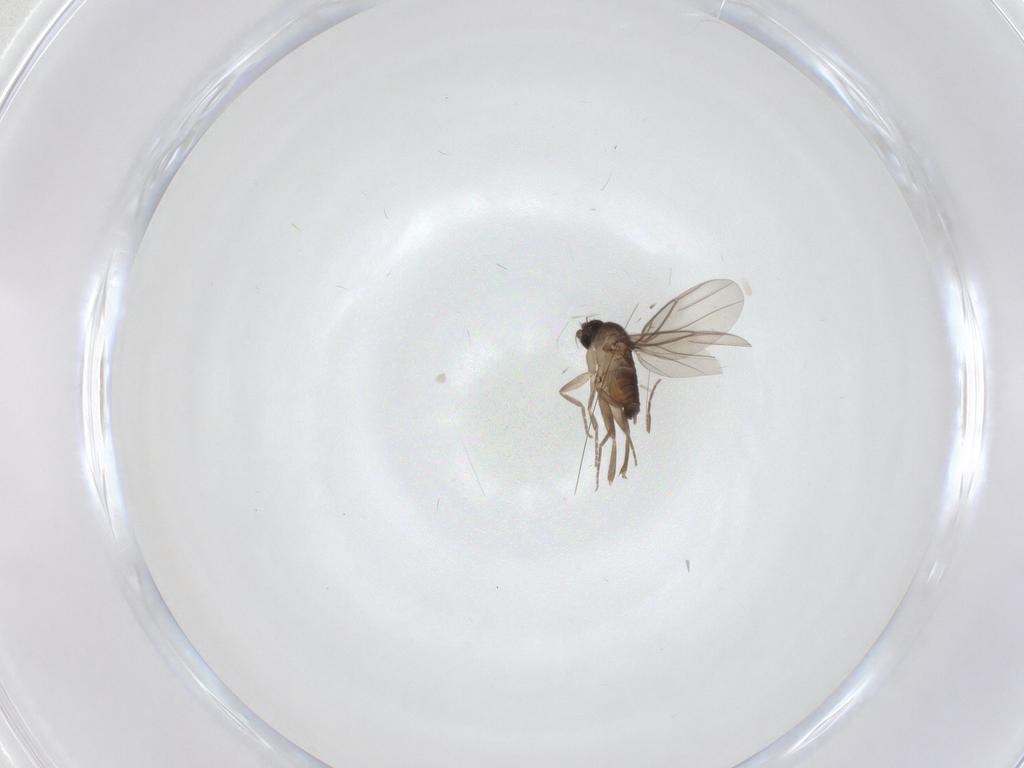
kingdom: Animalia
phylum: Arthropoda
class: Insecta
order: Diptera
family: Phoridae
